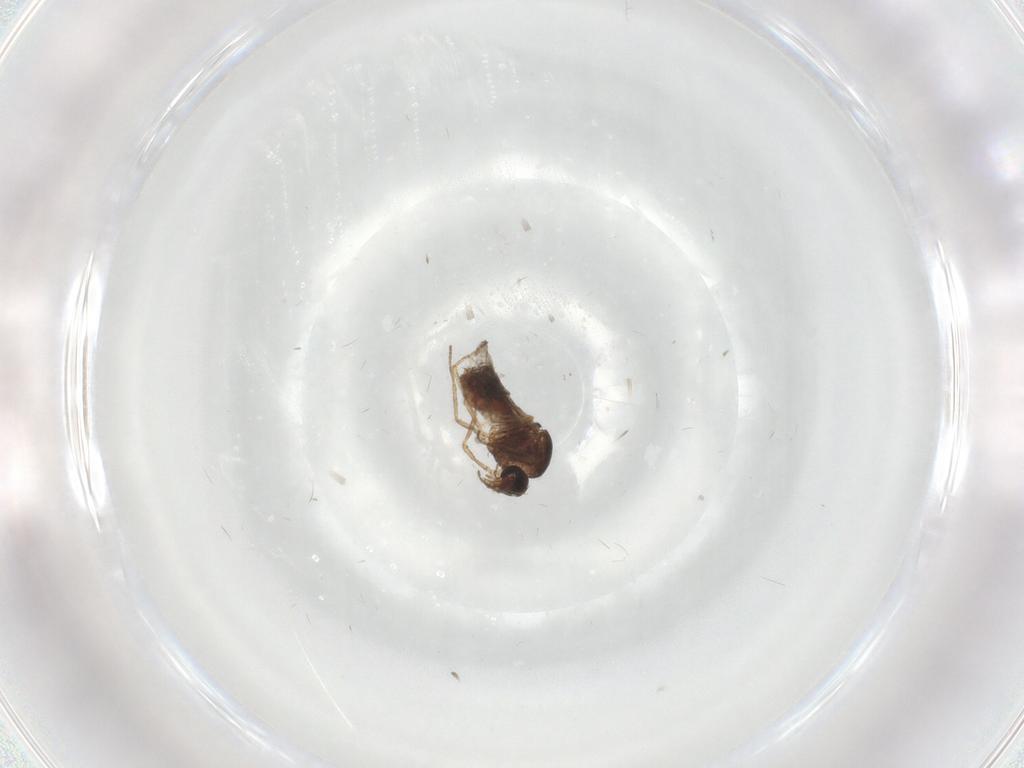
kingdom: Animalia
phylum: Arthropoda
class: Insecta
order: Diptera
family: Ceratopogonidae
